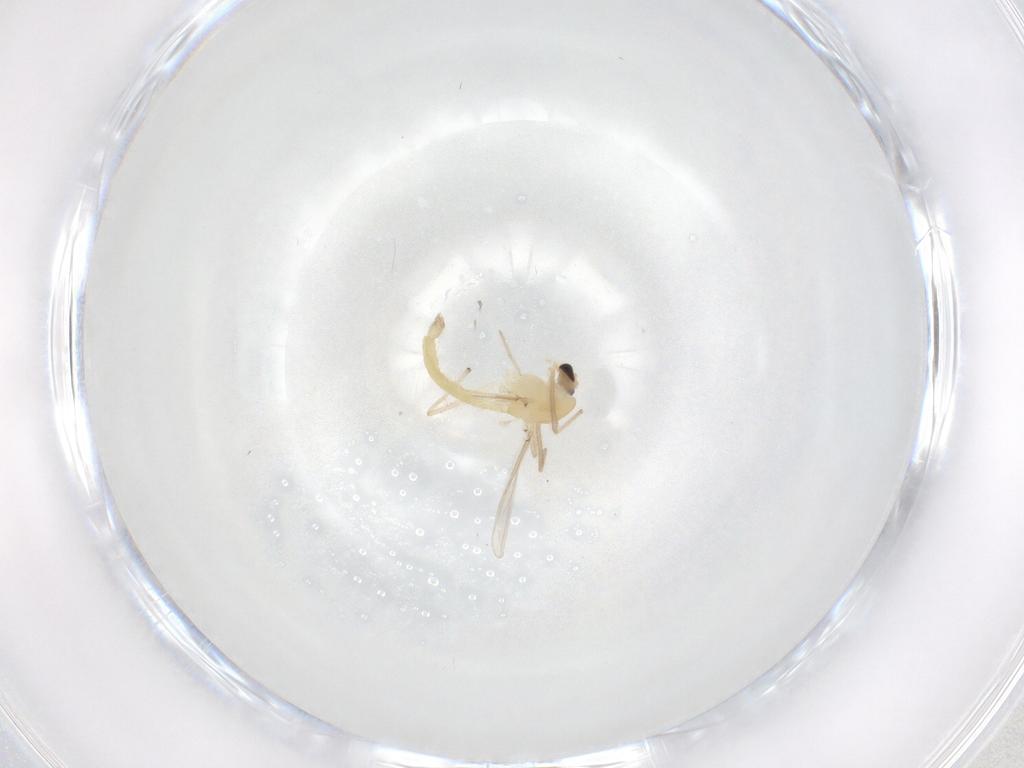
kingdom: Animalia
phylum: Arthropoda
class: Insecta
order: Diptera
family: Chironomidae
